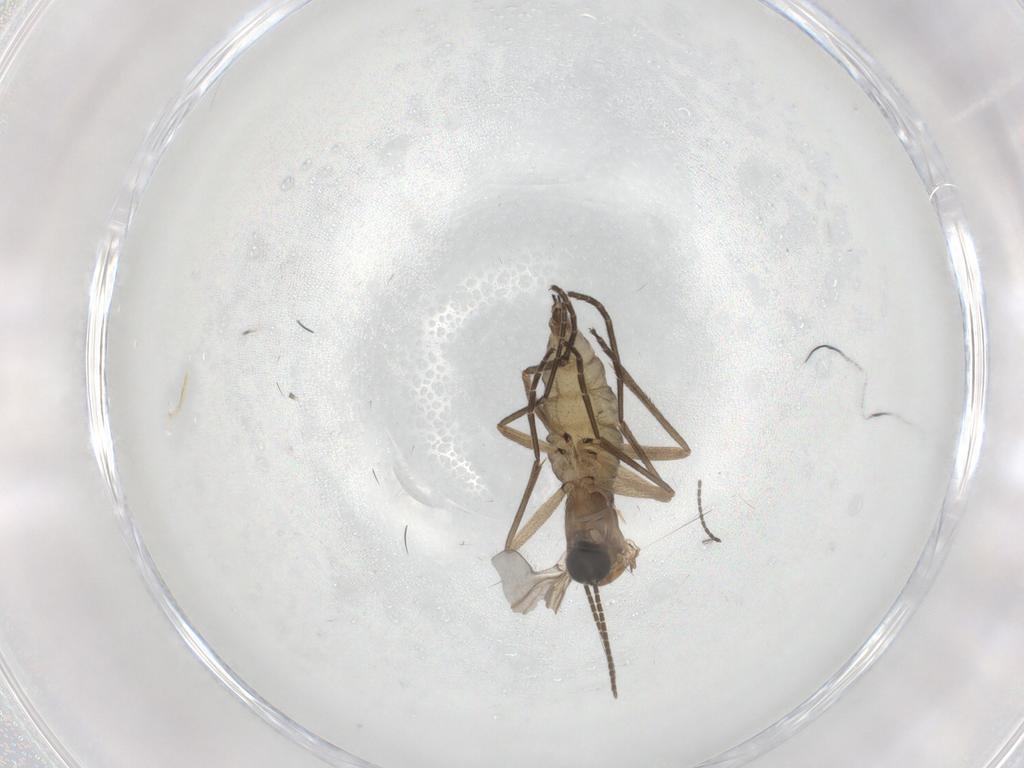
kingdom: Animalia
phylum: Arthropoda
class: Insecta
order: Diptera
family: Sciaridae
